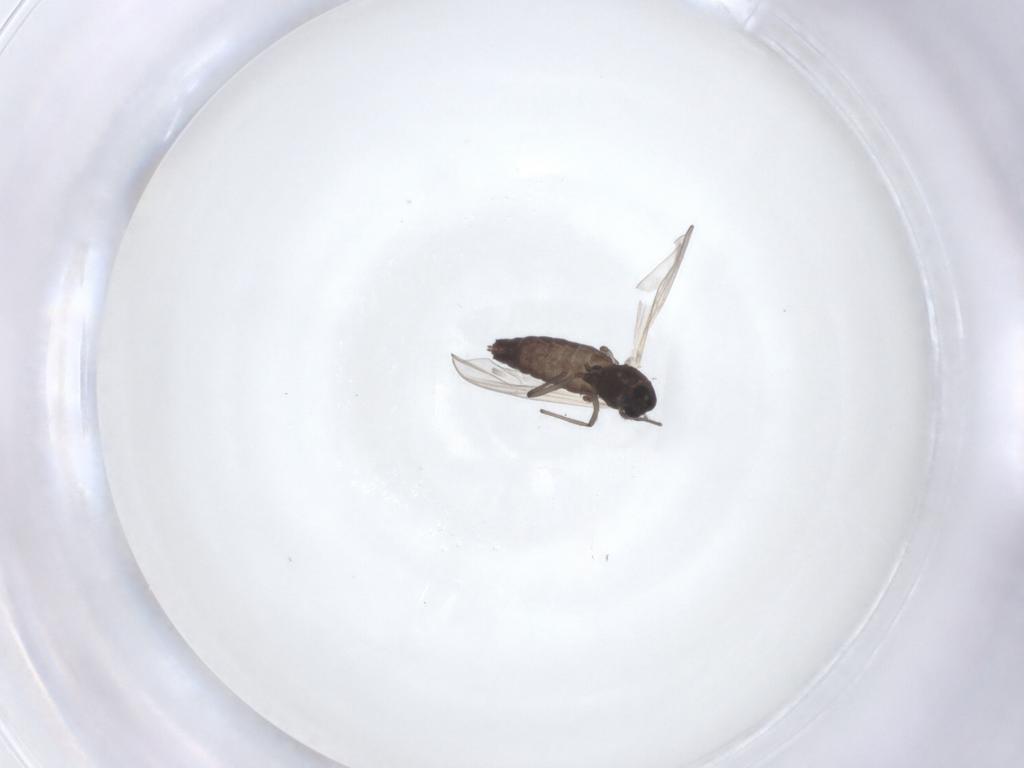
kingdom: Animalia
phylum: Arthropoda
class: Insecta
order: Diptera
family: Chironomidae
